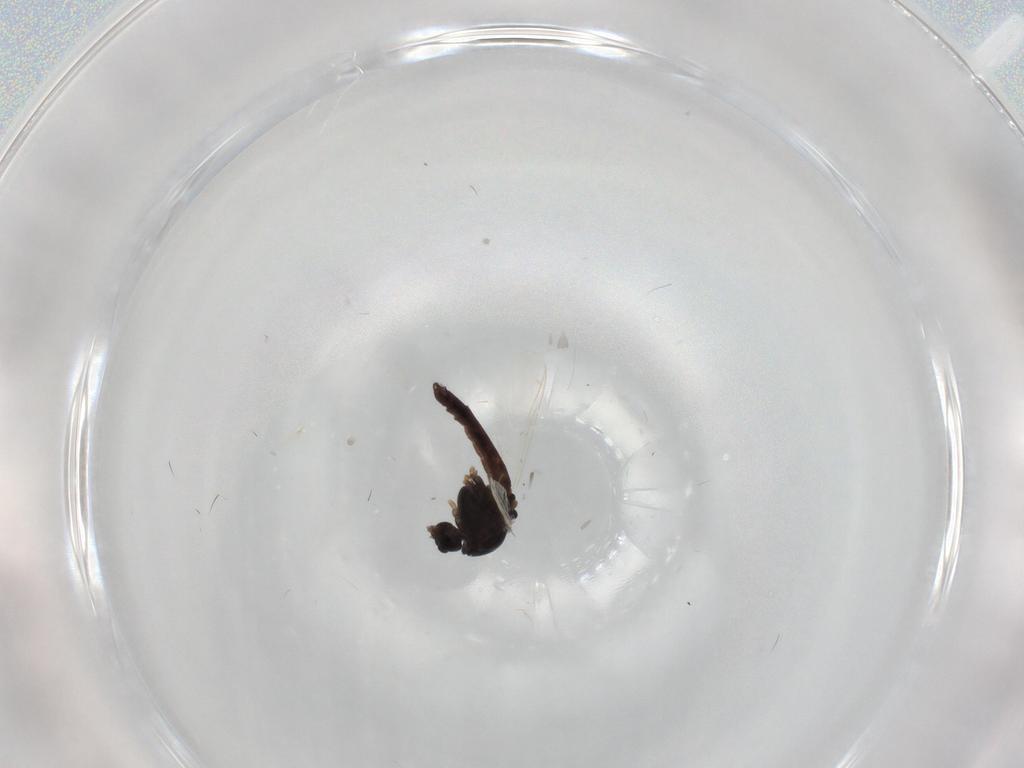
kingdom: Animalia
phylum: Arthropoda
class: Insecta
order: Diptera
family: Chironomidae
